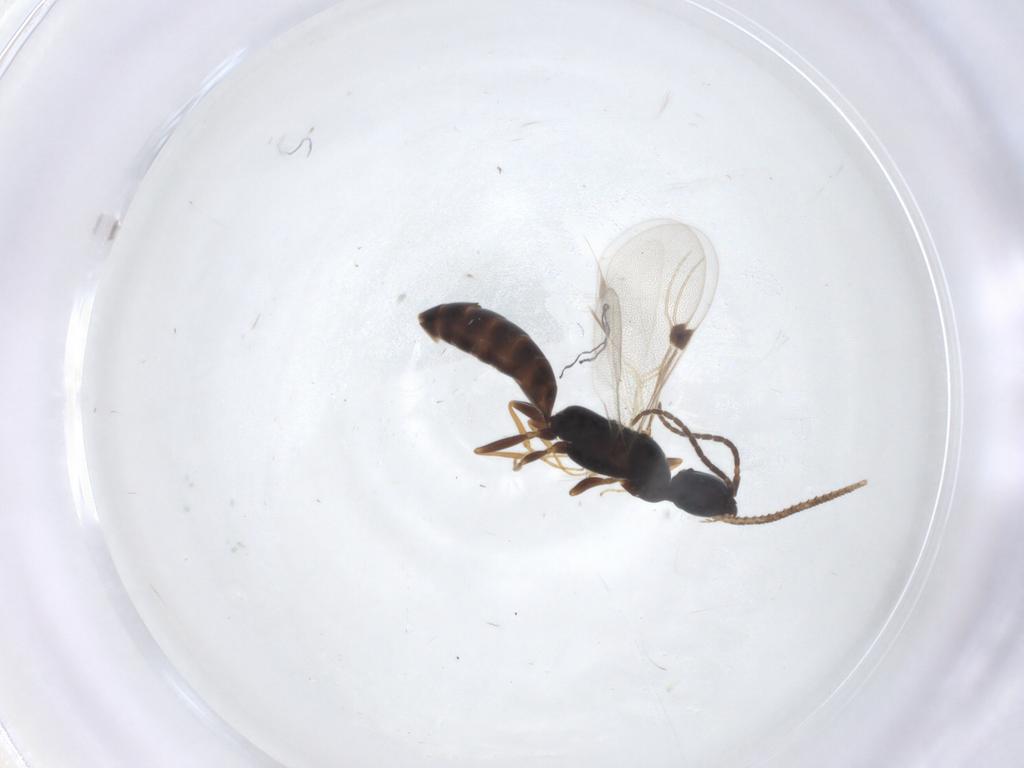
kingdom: Animalia
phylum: Arthropoda
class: Insecta
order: Hymenoptera
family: Bethylidae
